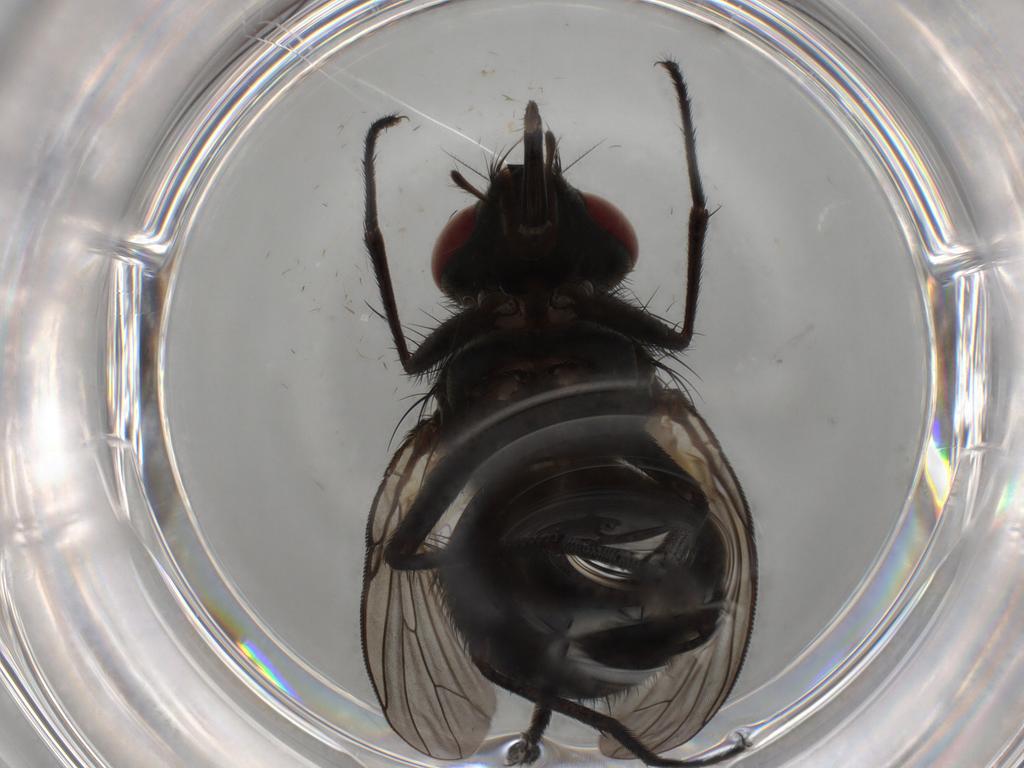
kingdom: Animalia
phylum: Arthropoda
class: Insecta
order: Diptera
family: Muscidae
